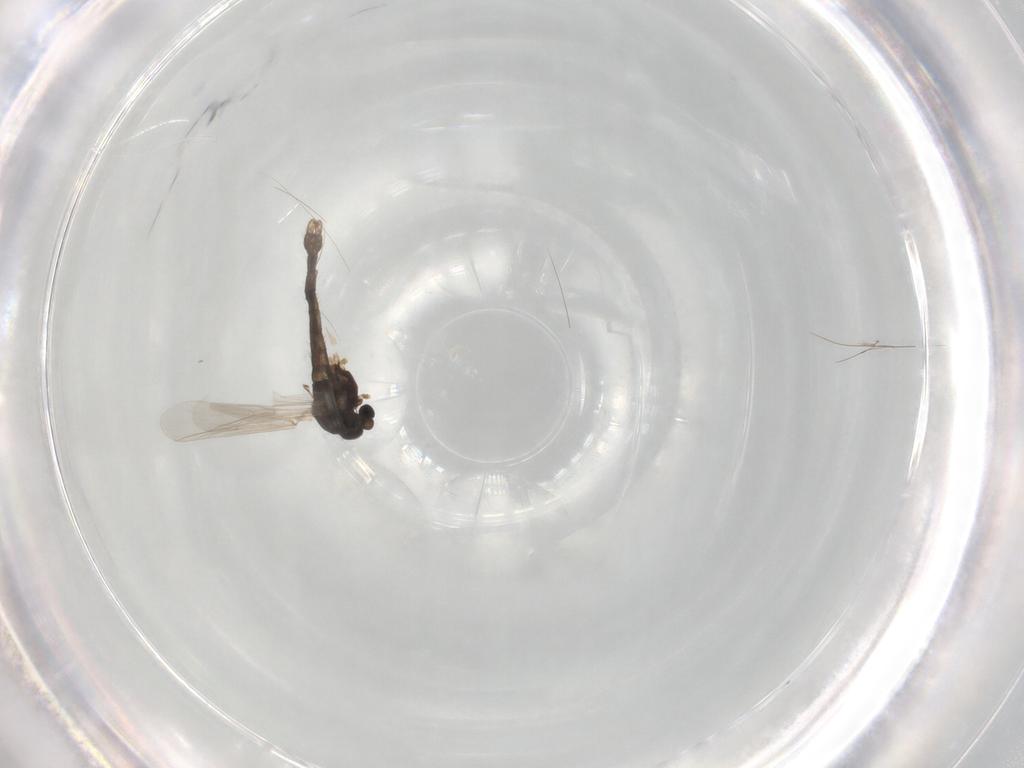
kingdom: Animalia
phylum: Arthropoda
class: Insecta
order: Diptera
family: Chironomidae
